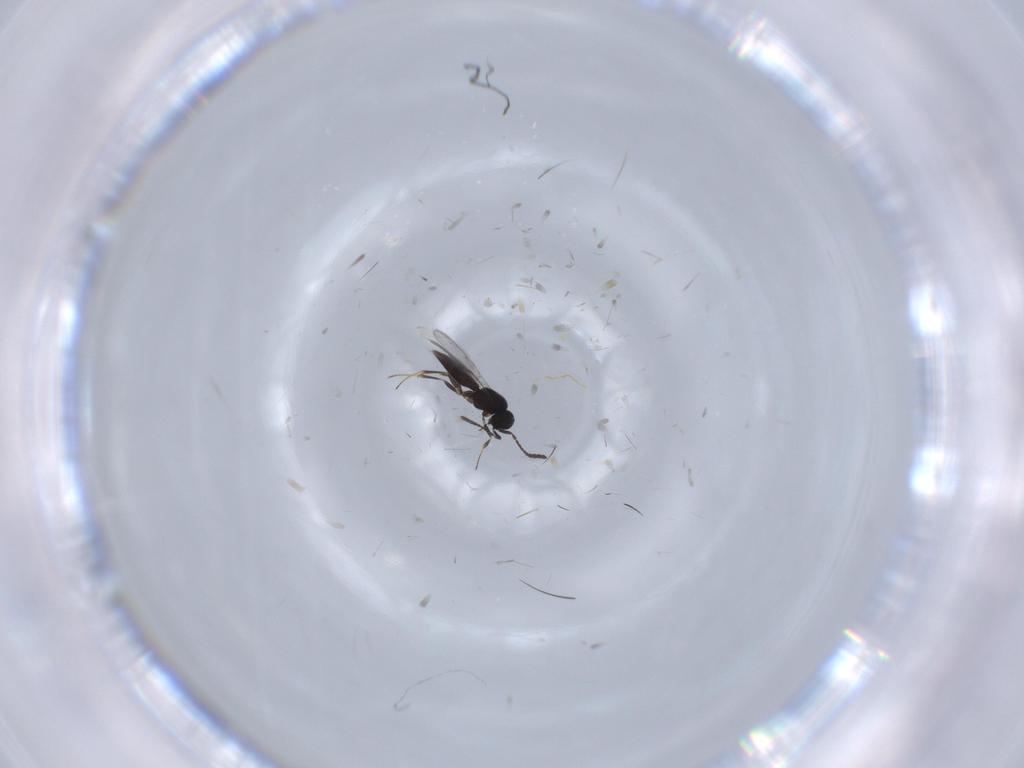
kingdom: Animalia
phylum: Arthropoda
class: Insecta
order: Hymenoptera
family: Scelionidae
